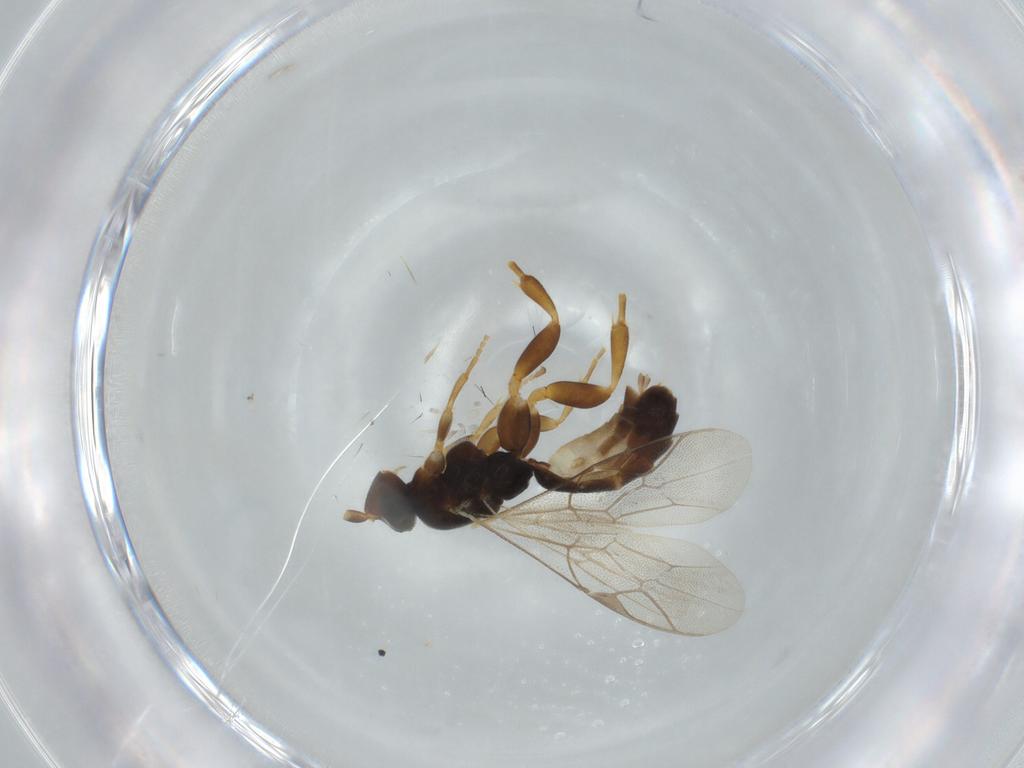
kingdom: Animalia
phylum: Arthropoda
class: Insecta
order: Hymenoptera
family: Ichneumonidae
